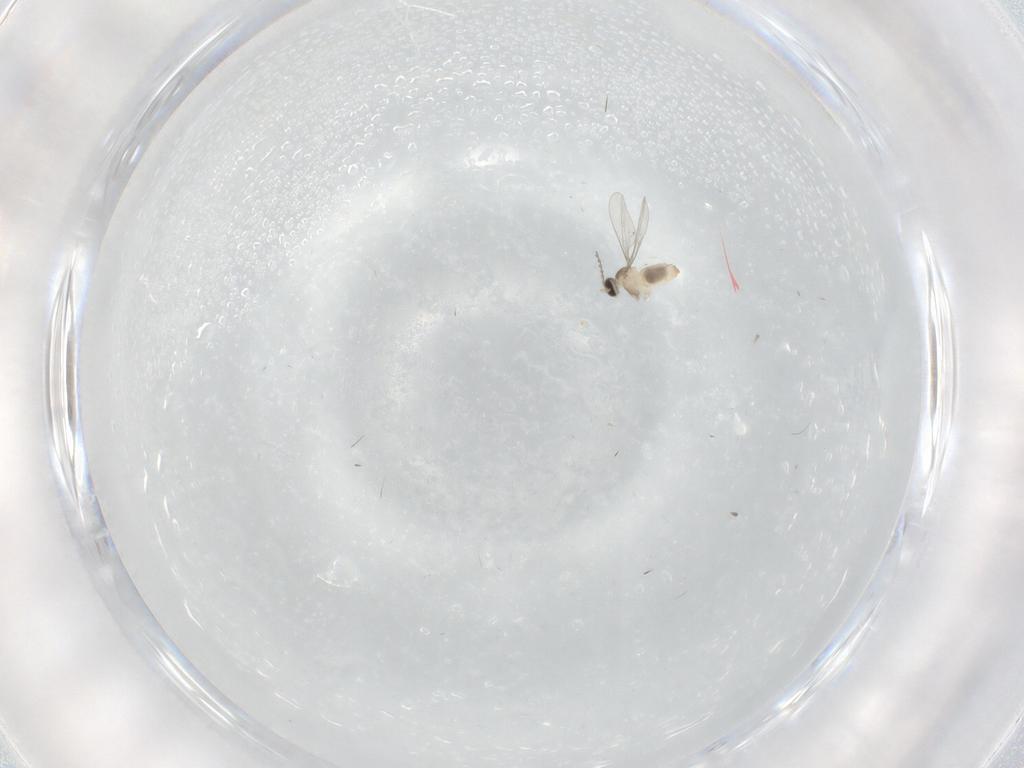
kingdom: Animalia
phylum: Arthropoda
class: Insecta
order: Diptera
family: Cecidomyiidae
